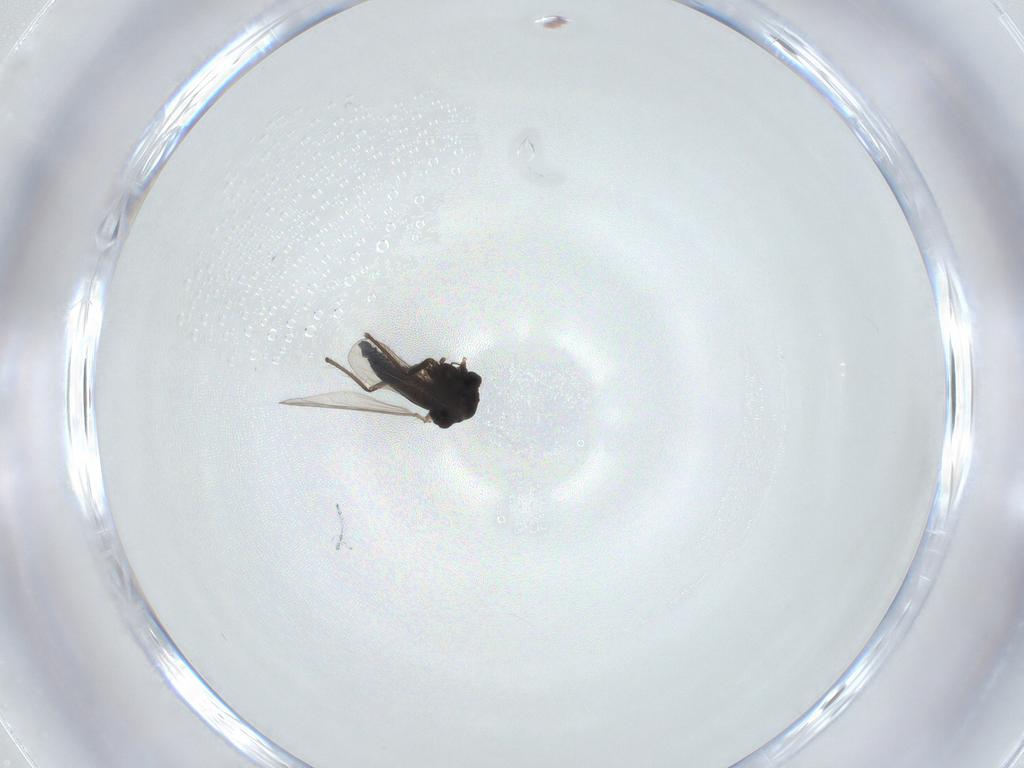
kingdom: Animalia
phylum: Arthropoda
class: Insecta
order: Diptera
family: Chironomidae
